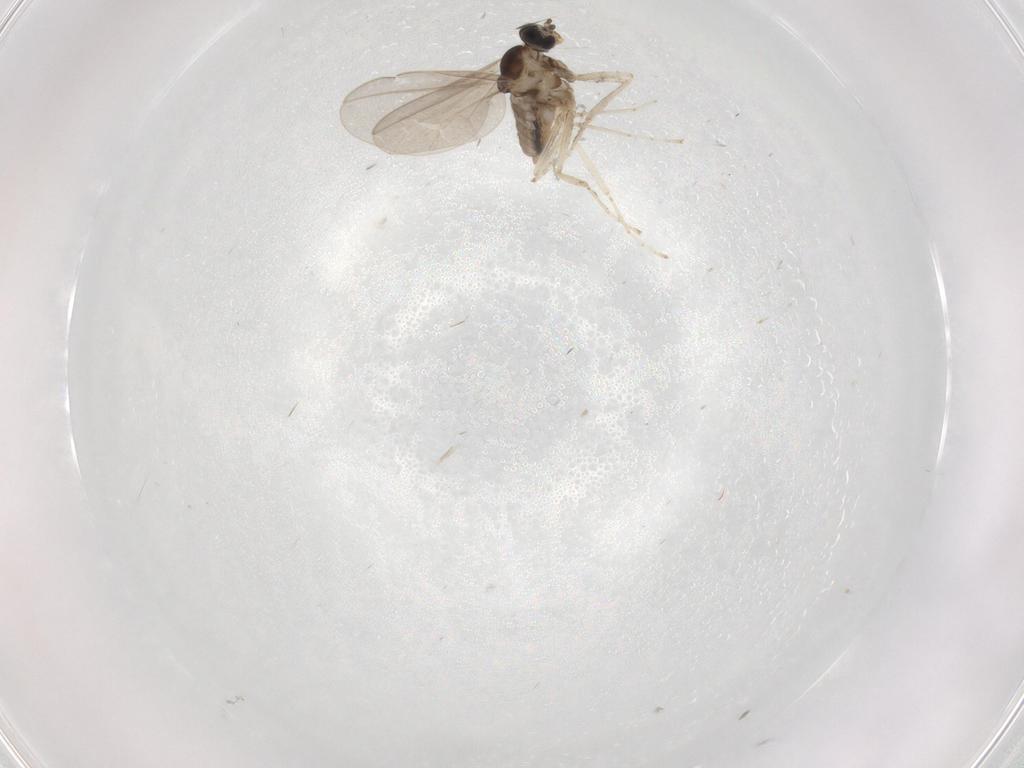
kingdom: Animalia
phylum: Arthropoda
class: Insecta
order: Diptera
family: Cecidomyiidae
